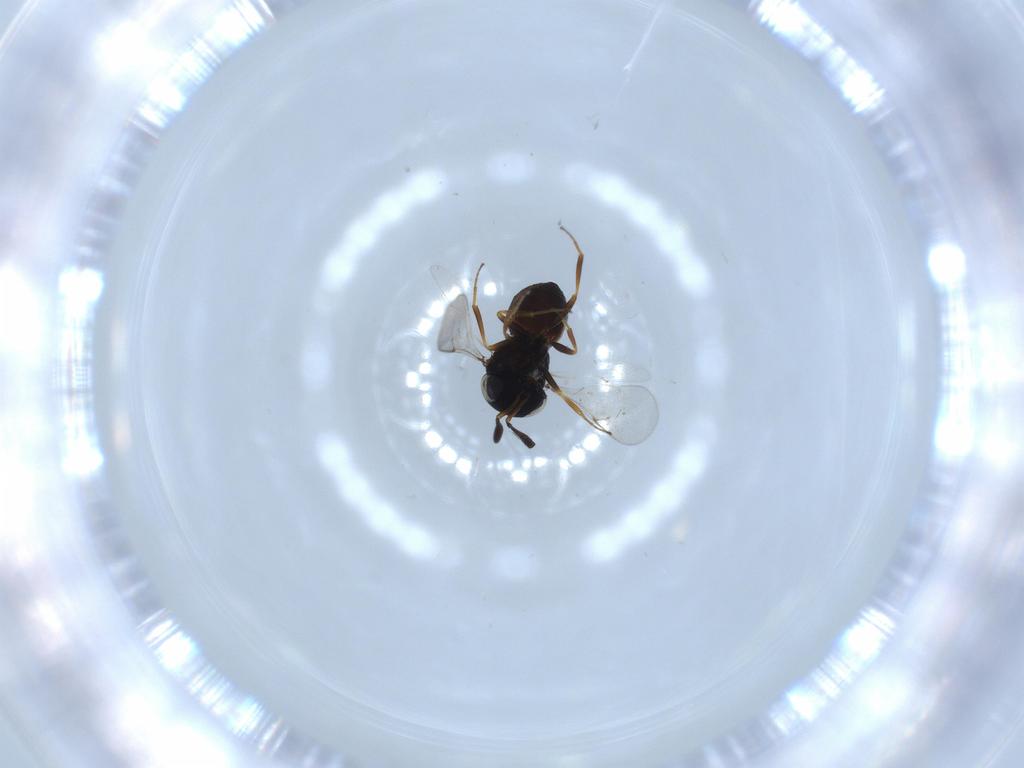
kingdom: Animalia
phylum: Arthropoda
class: Insecta
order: Hymenoptera
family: Scelionidae
